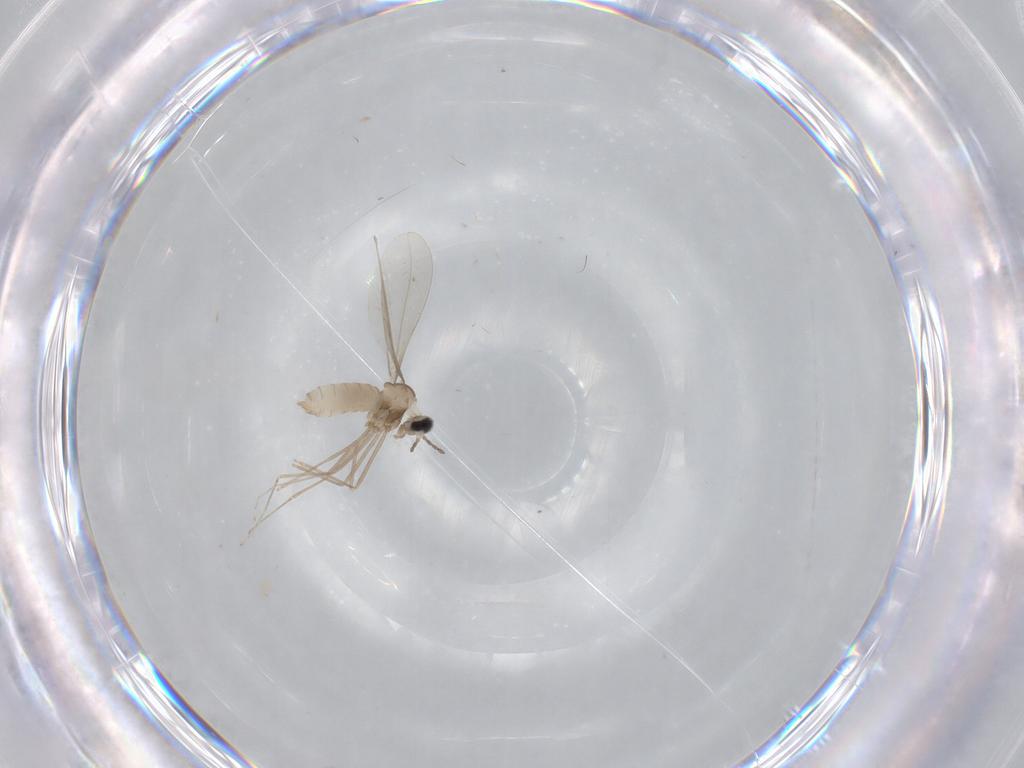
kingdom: Animalia
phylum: Arthropoda
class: Insecta
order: Diptera
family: Cecidomyiidae
